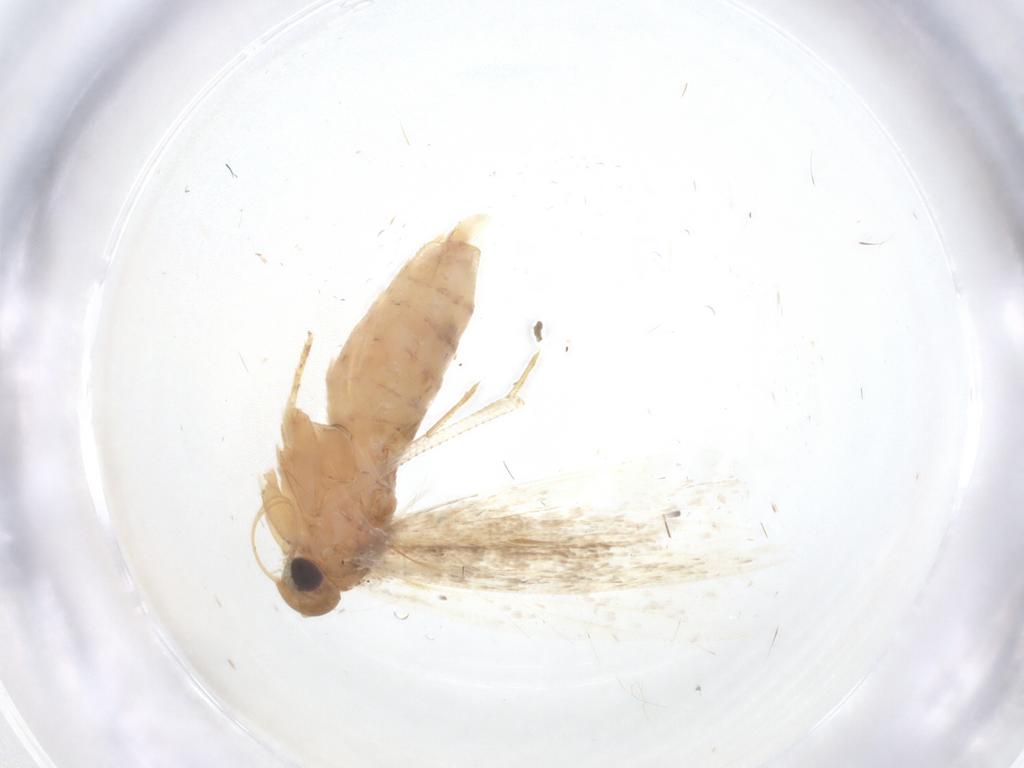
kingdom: Animalia
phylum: Arthropoda
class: Insecta
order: Lepidoptera
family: Gelechiidae
